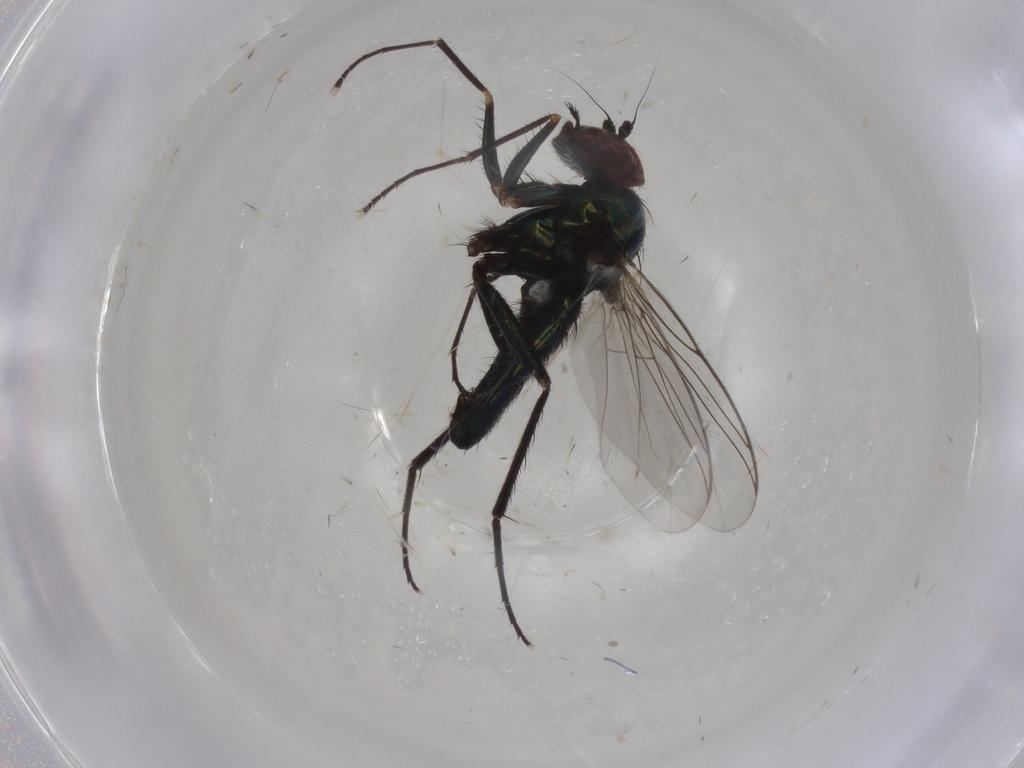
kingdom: Animalia
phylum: Arthropoda
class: Insecta
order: Diptera
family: Dolichopodidae
